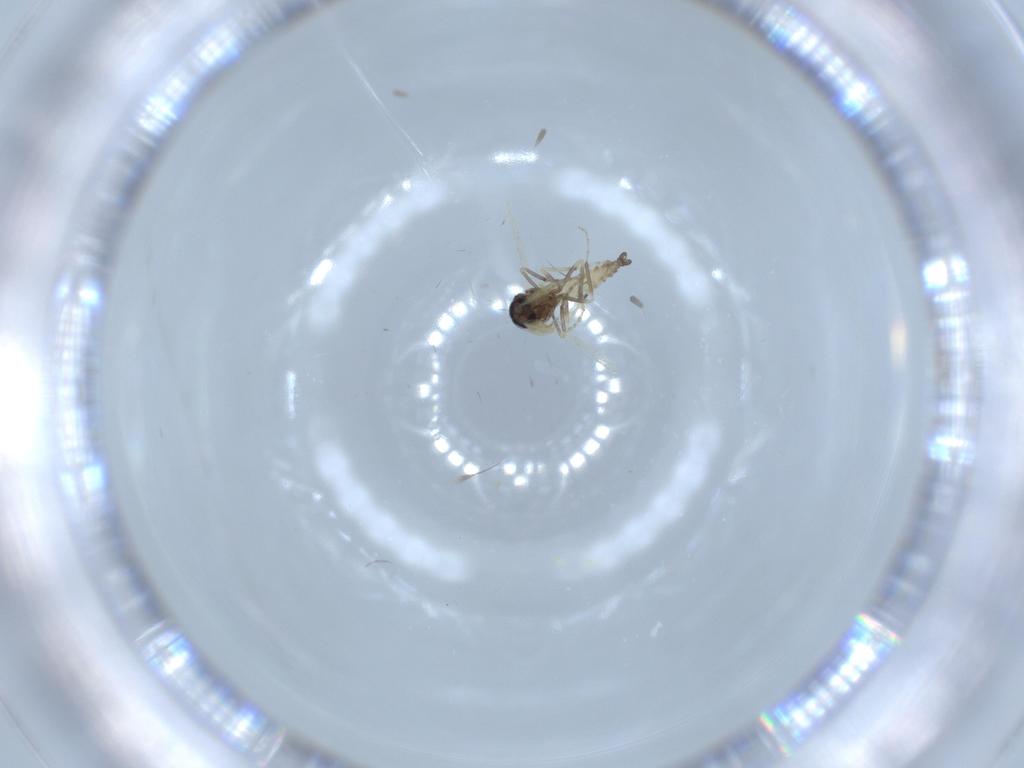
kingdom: Animalia
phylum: Arthropoda
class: Insecta
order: Diptera
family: Ceratopogonidae
